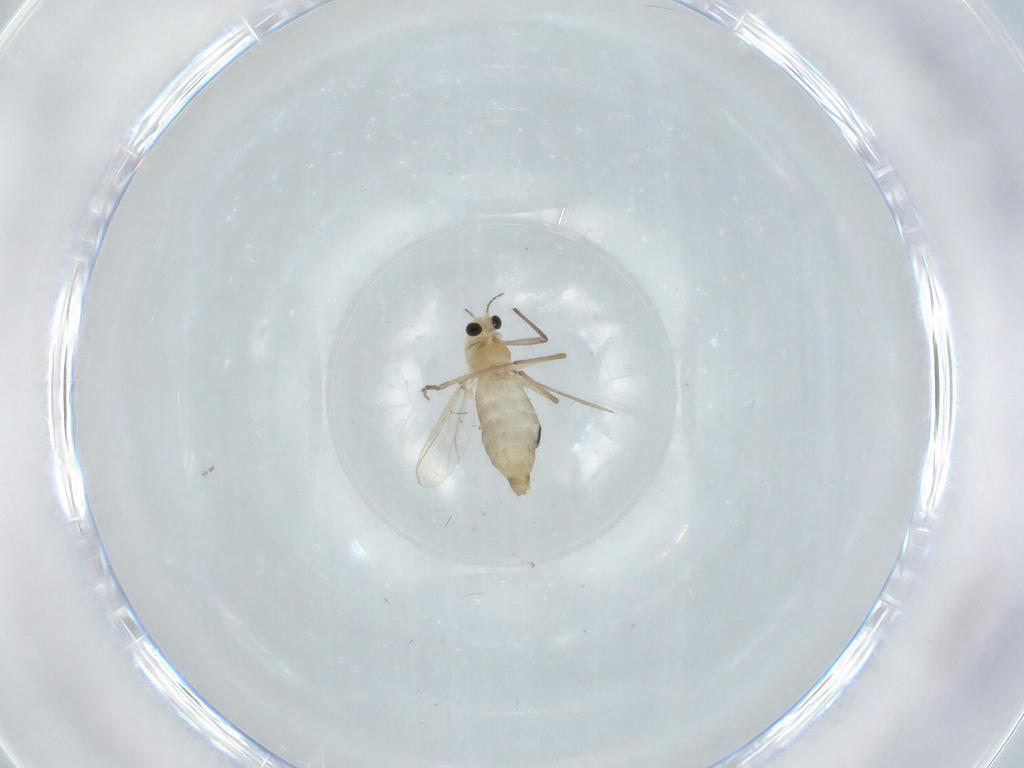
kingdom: Animalia
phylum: Arthropoda
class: Insecta
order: Diptera
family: Chironomidae
